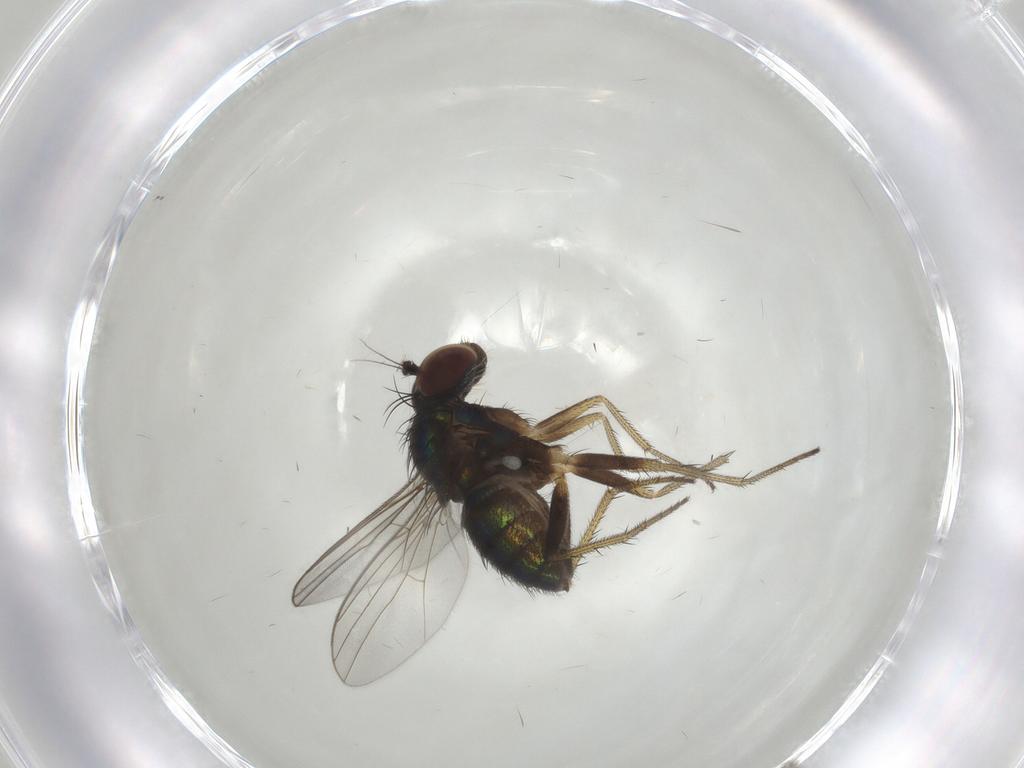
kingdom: Animalia
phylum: Arthropoda
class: Insecta
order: Diptera
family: Dolichopodidae
